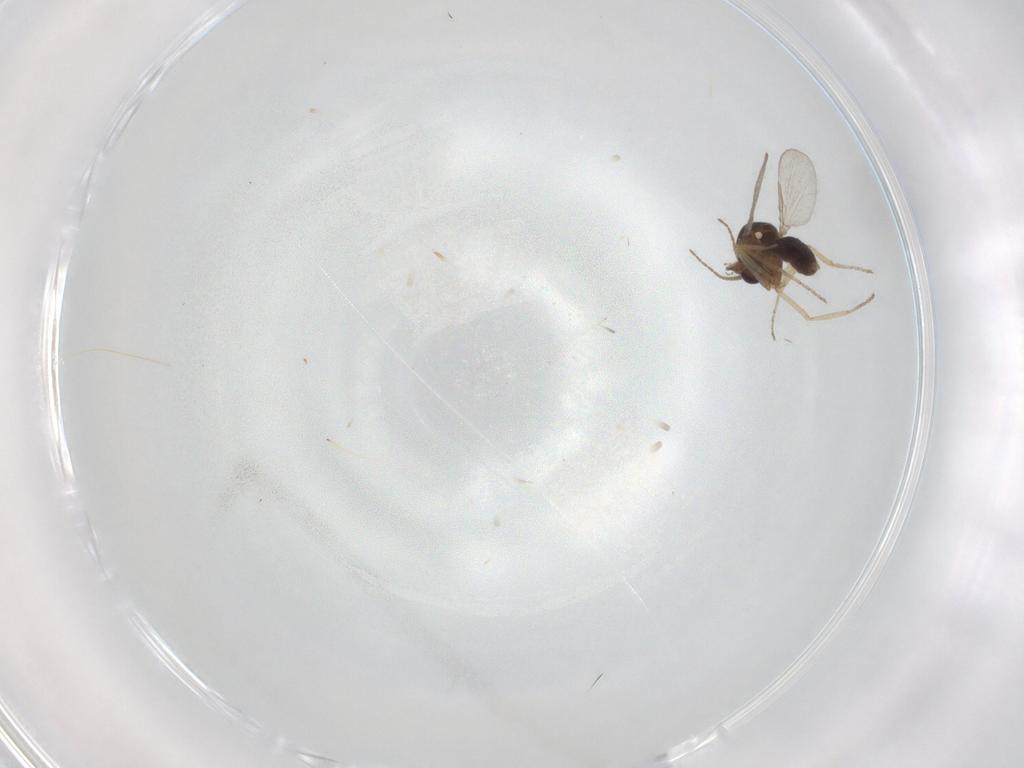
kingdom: Animalia
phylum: Arthropoda
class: Insecta
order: Diptera
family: Ceratopogonidae
